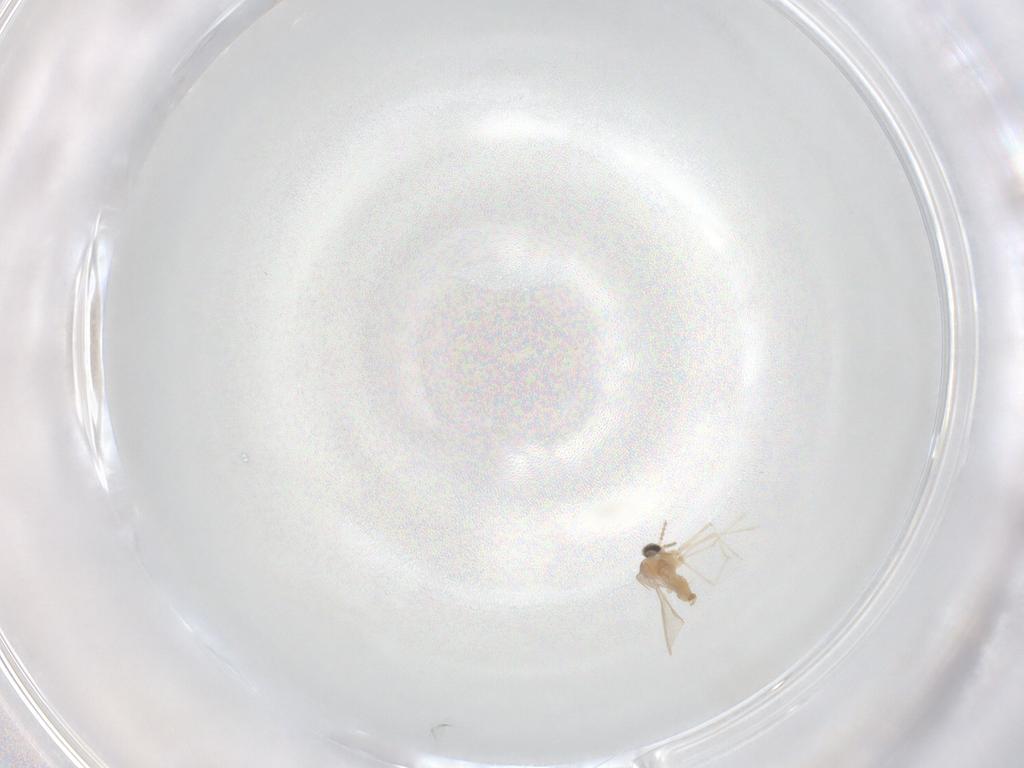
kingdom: Animalia
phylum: Arthropoda
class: Insecta
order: Diptera
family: Cecidomyiidae
